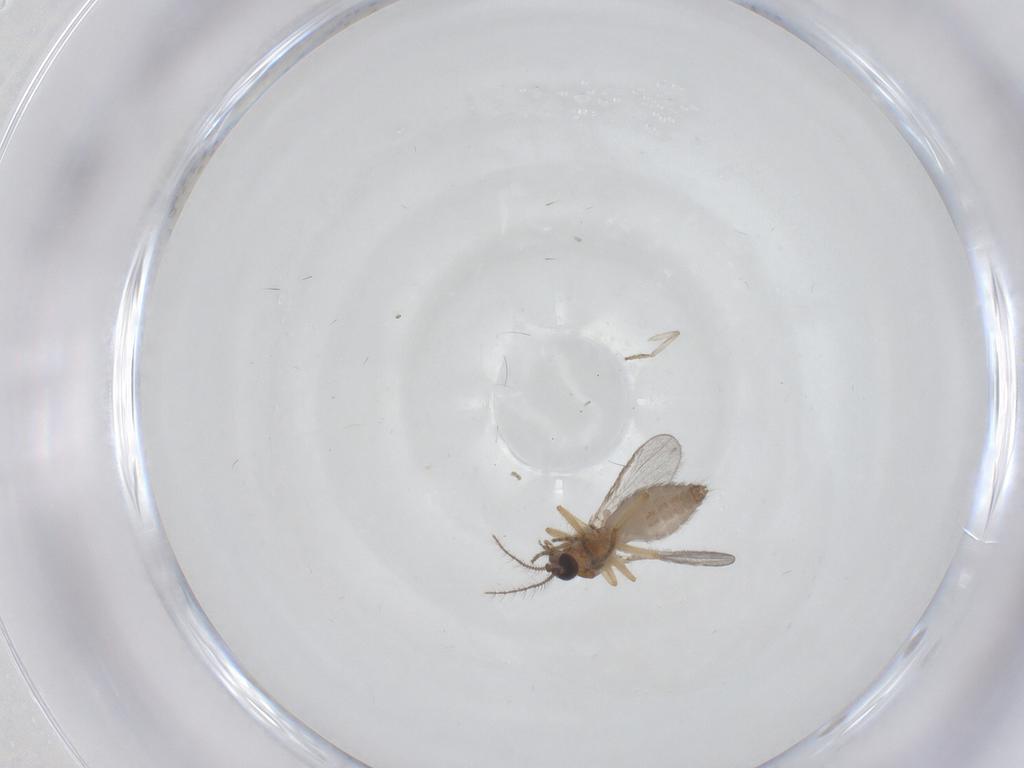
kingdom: Animalia
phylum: Arthropoda
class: Insecta
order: Diptera
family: Ceratopogonidae
